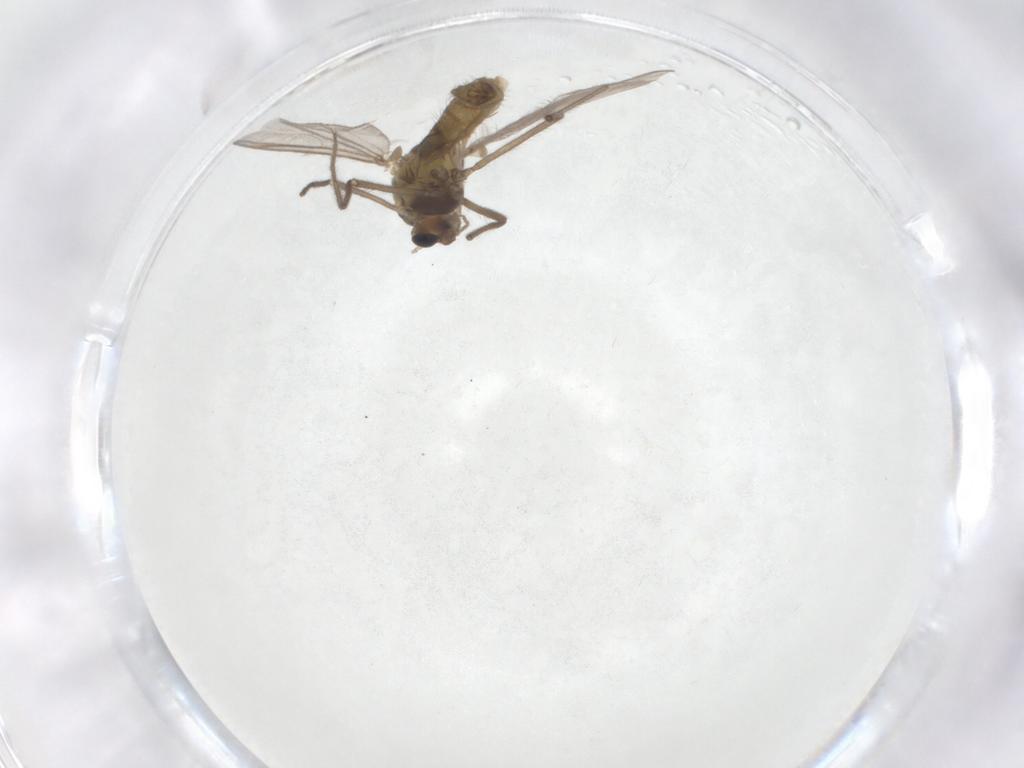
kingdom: Animalia
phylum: Arthropoda
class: Insecta
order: Diptera
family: Chironomidae
